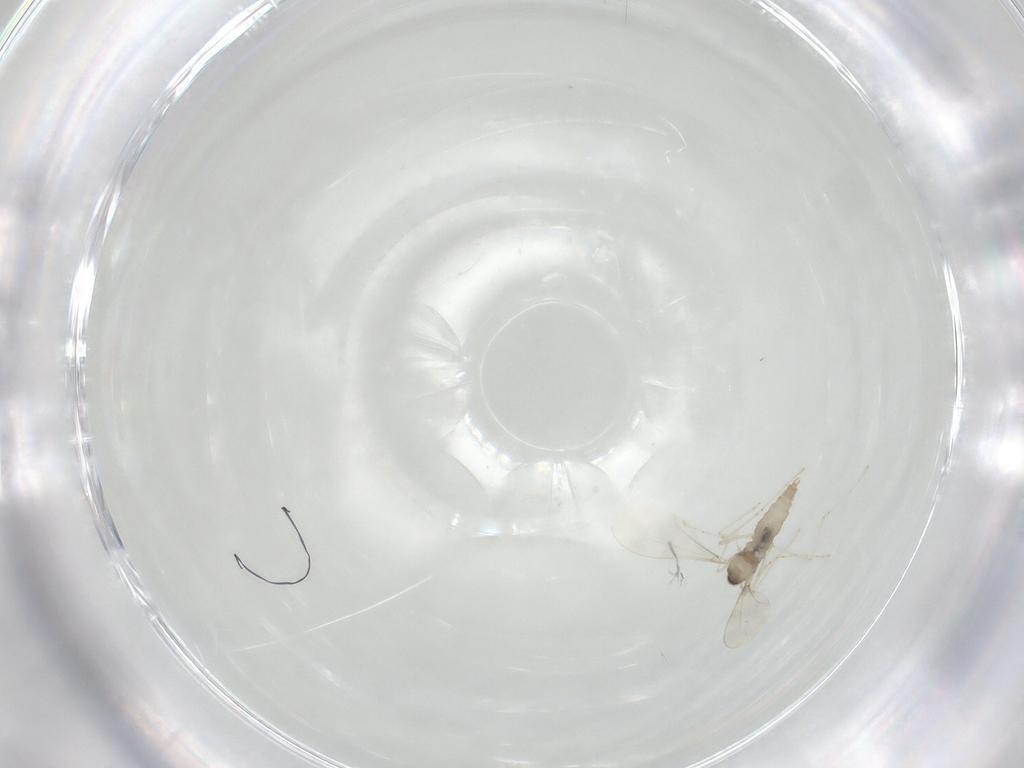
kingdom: Animalia
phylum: Arthropoda
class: Insecta
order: Diptera
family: Cecidomyiidae
